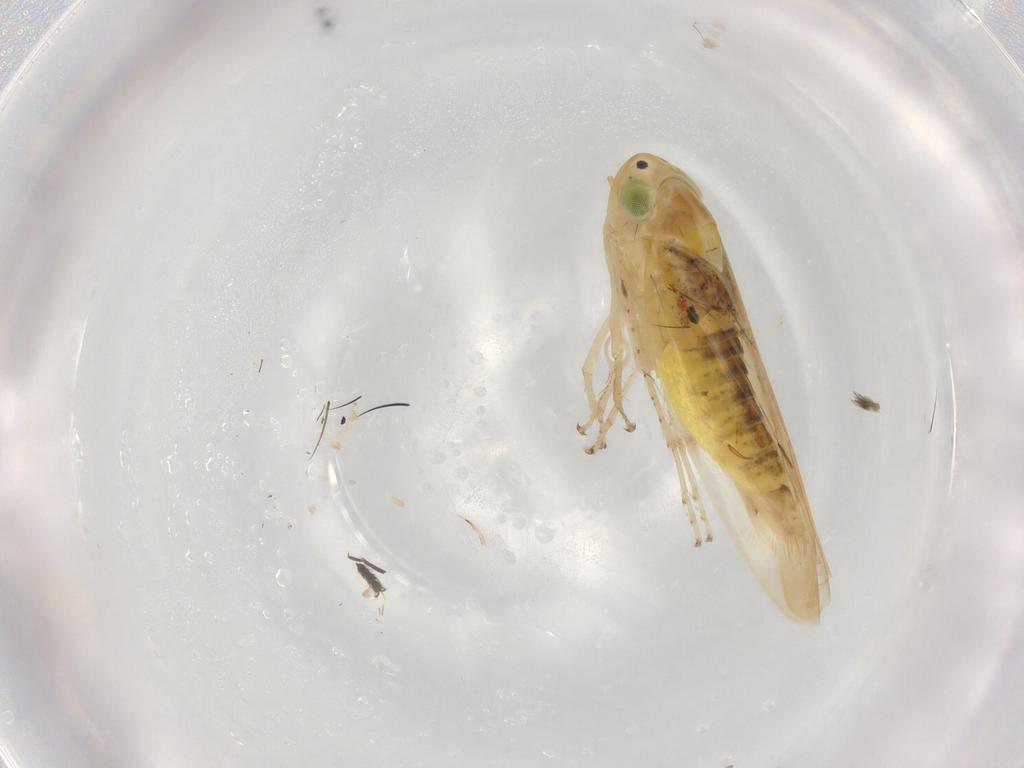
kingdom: Animalia
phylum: Arthropoda
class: Insecta
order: Hemiptera
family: Aleyrodidae
